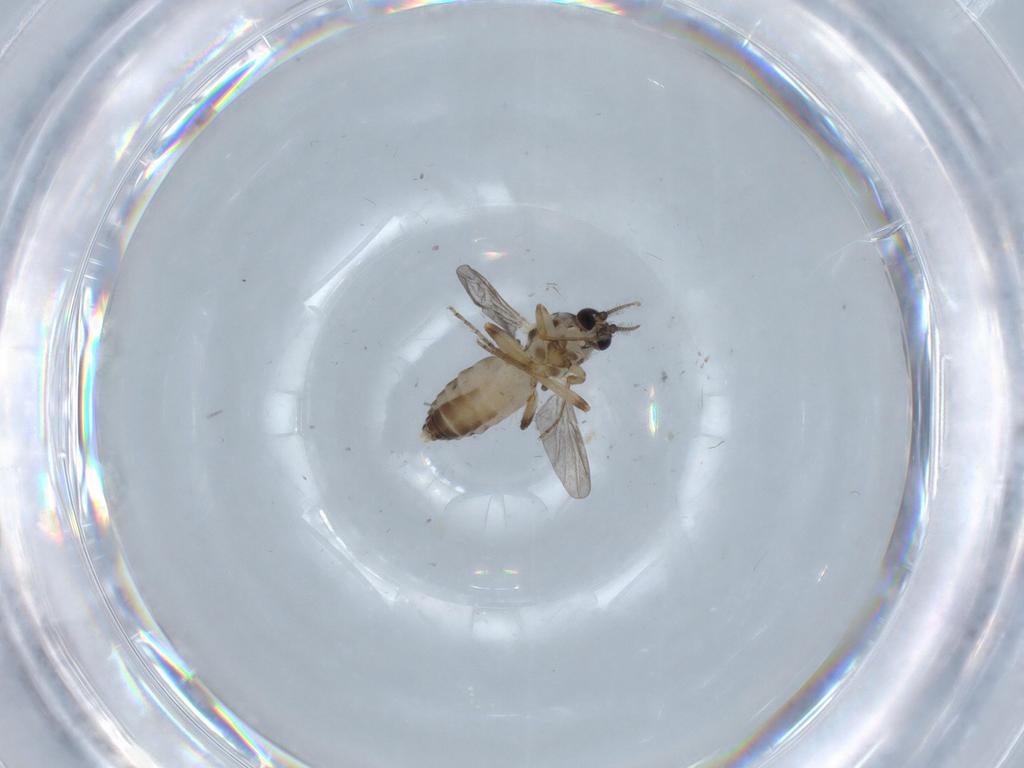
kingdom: Animalia
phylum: Arthropoda
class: Insecta
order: Diptera
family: Ceratopogonidae
